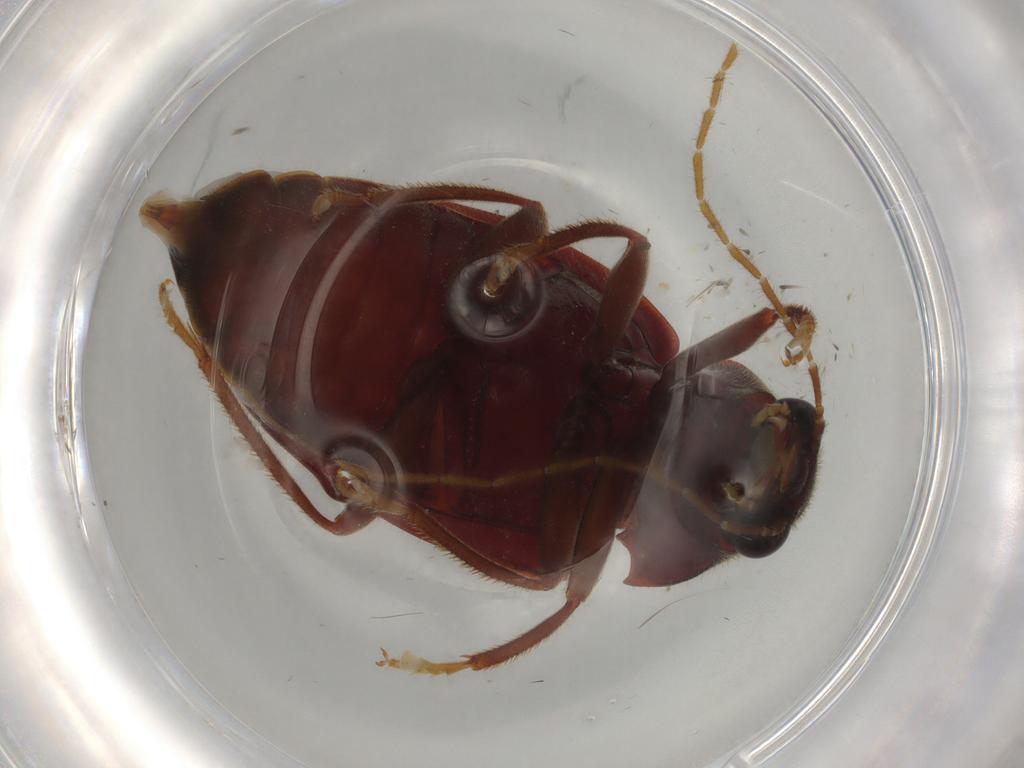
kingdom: Animalia
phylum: Arthropoda
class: Insecta
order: Coleoptera
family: Ptilodactylidae
